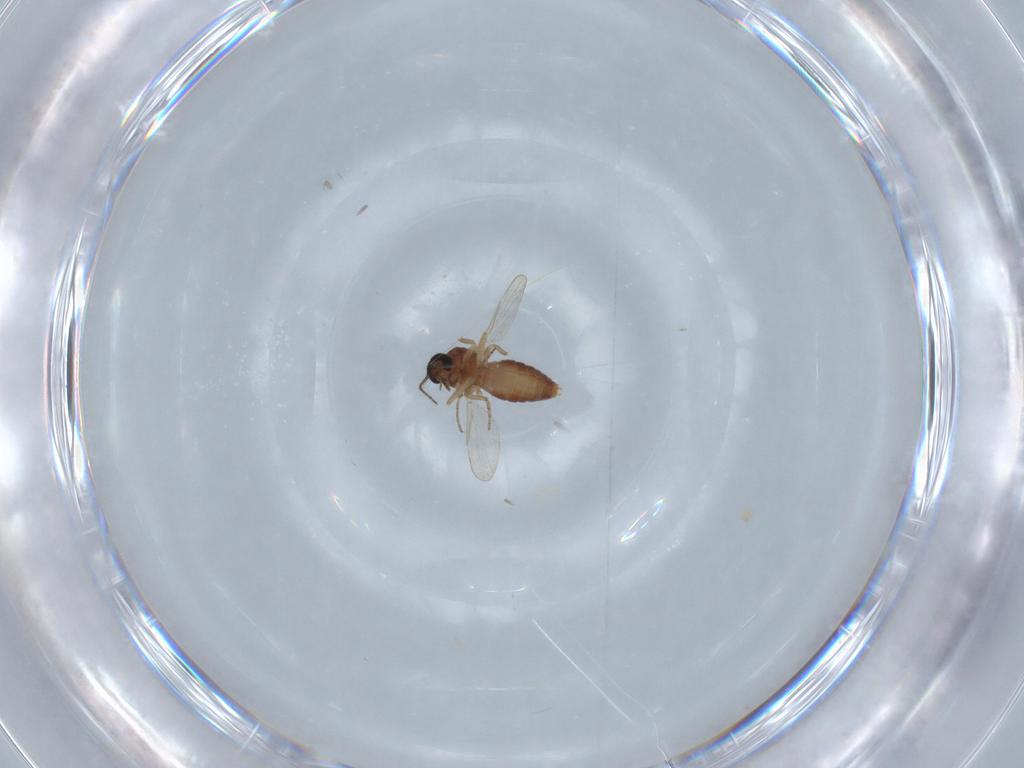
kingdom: Animalia
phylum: Arthropoda
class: Insecta
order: Diptera
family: Ceratopogonidae
